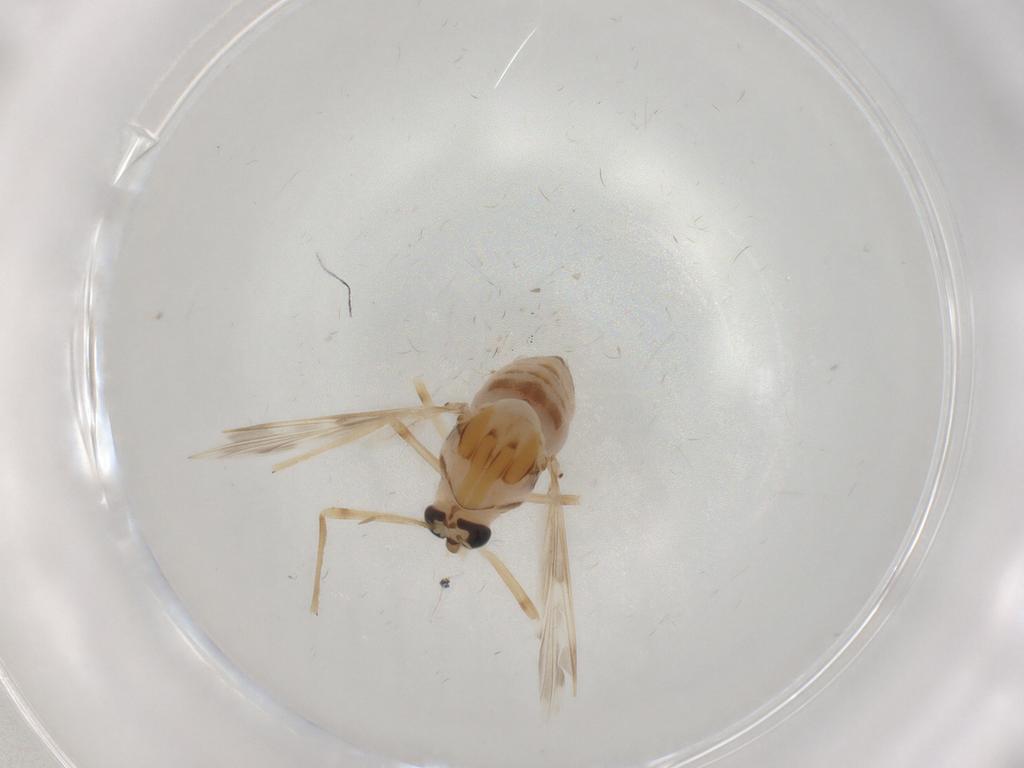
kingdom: Animalia
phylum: Arthropoda
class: Insecta
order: Diptera
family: Chironomidae
